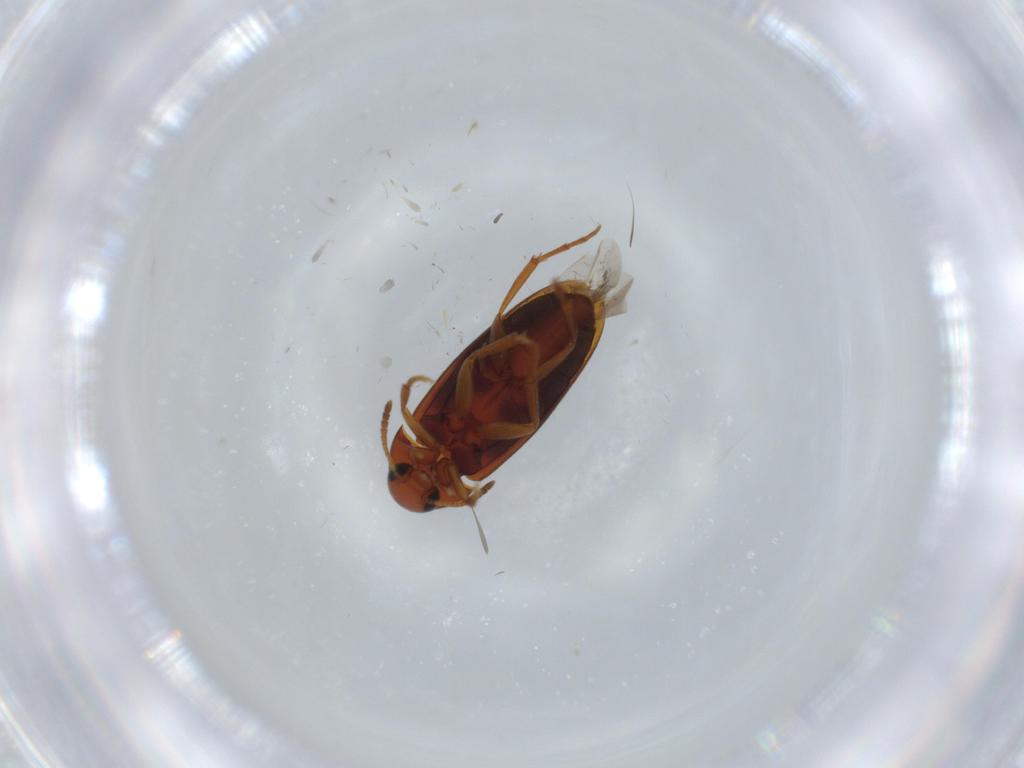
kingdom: Animalia
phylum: Arthropoda
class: Insecta
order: Coleoptera
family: Scraptiidae
